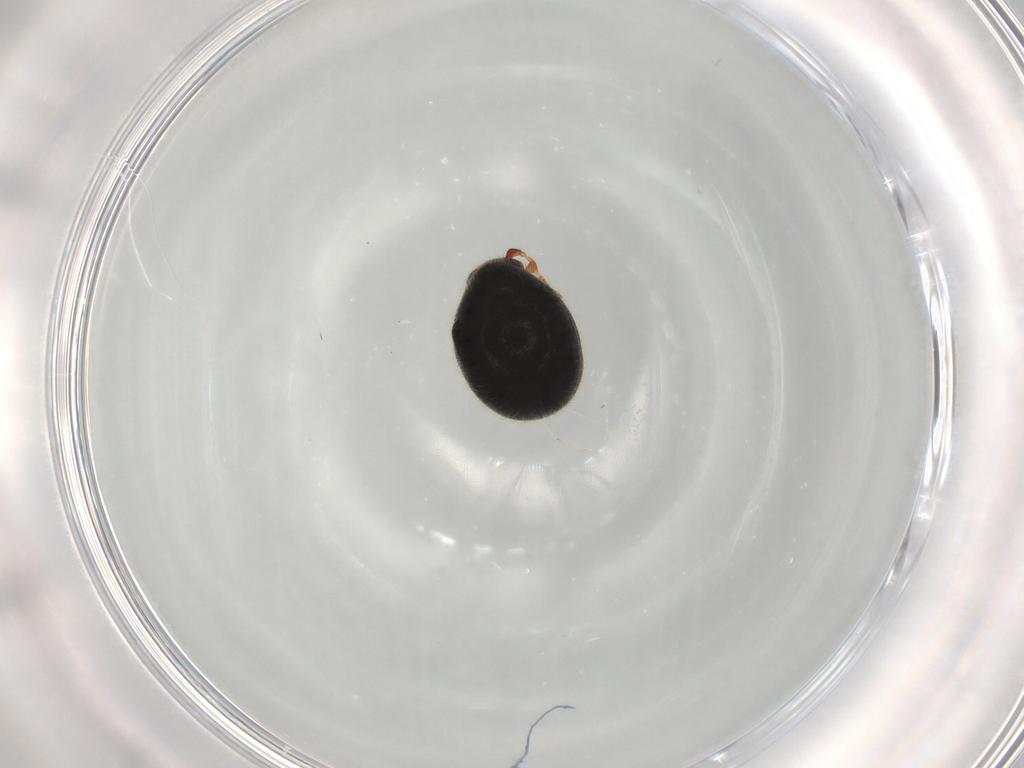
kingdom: Animalia
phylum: Arthropoda
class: Insecta
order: Coleoptera
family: Ptinidae
